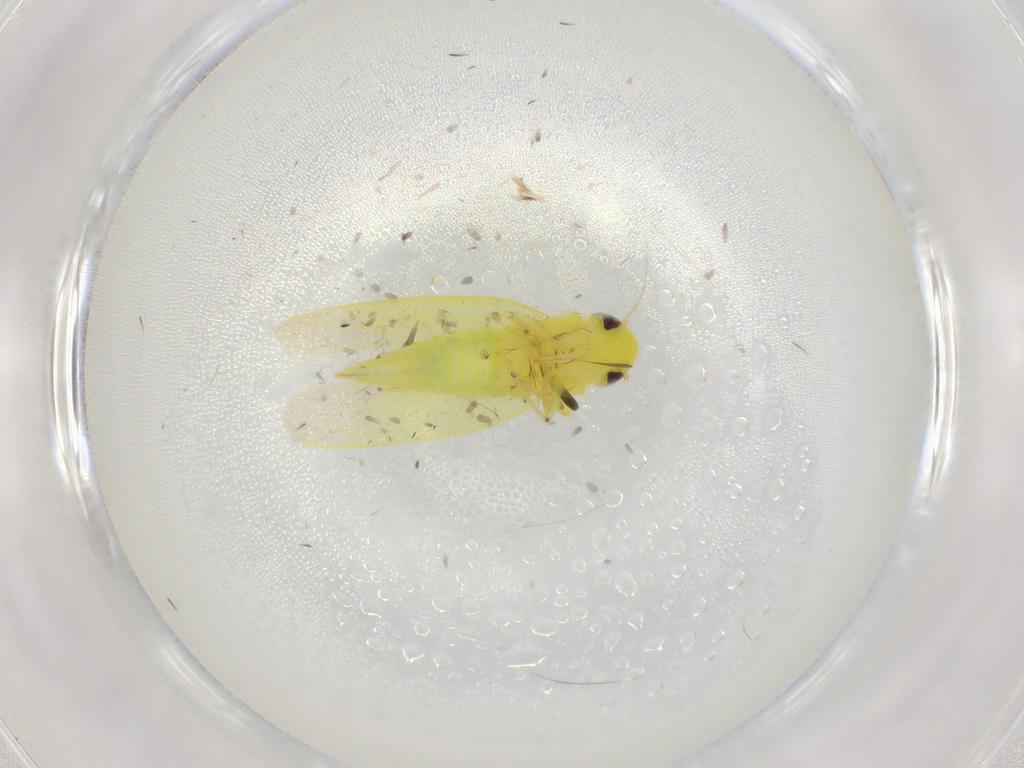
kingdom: Animalia
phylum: Arthropoda
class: Insecta
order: Hemiptera
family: Cicadellidae
